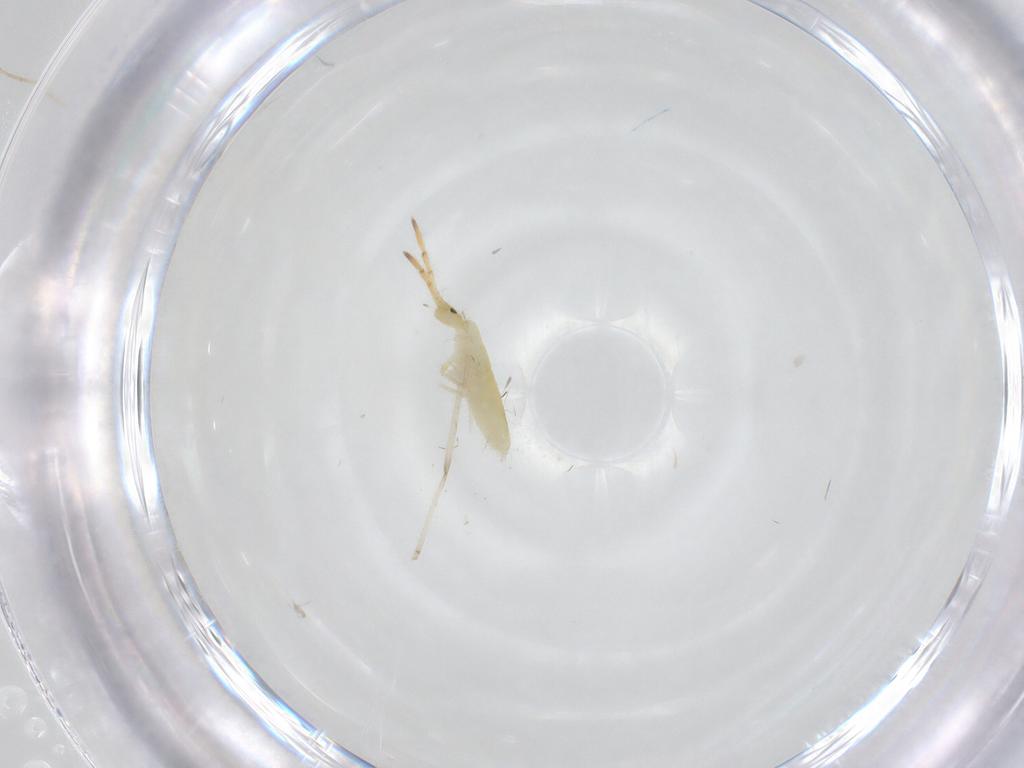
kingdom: Animalia
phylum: Arthropoda
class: Collembola
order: Entomobryomorpha
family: Entomobryidae
